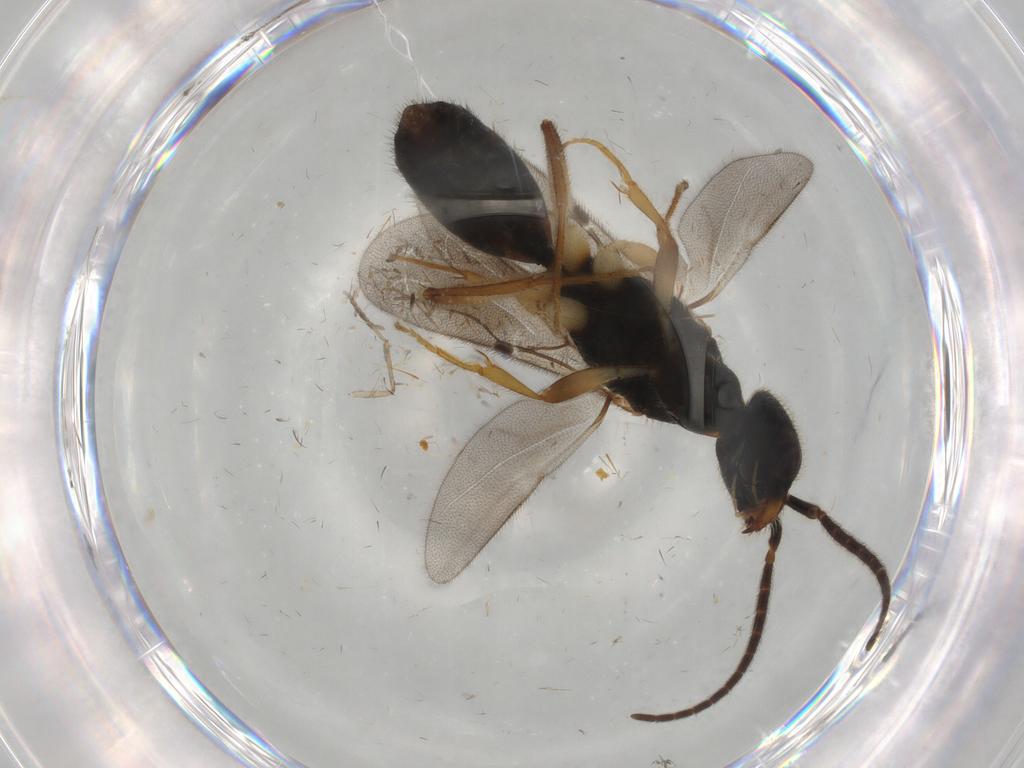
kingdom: Animalia
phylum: Arthropoda
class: Insecta
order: Hymenoptera
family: Bethylidae
